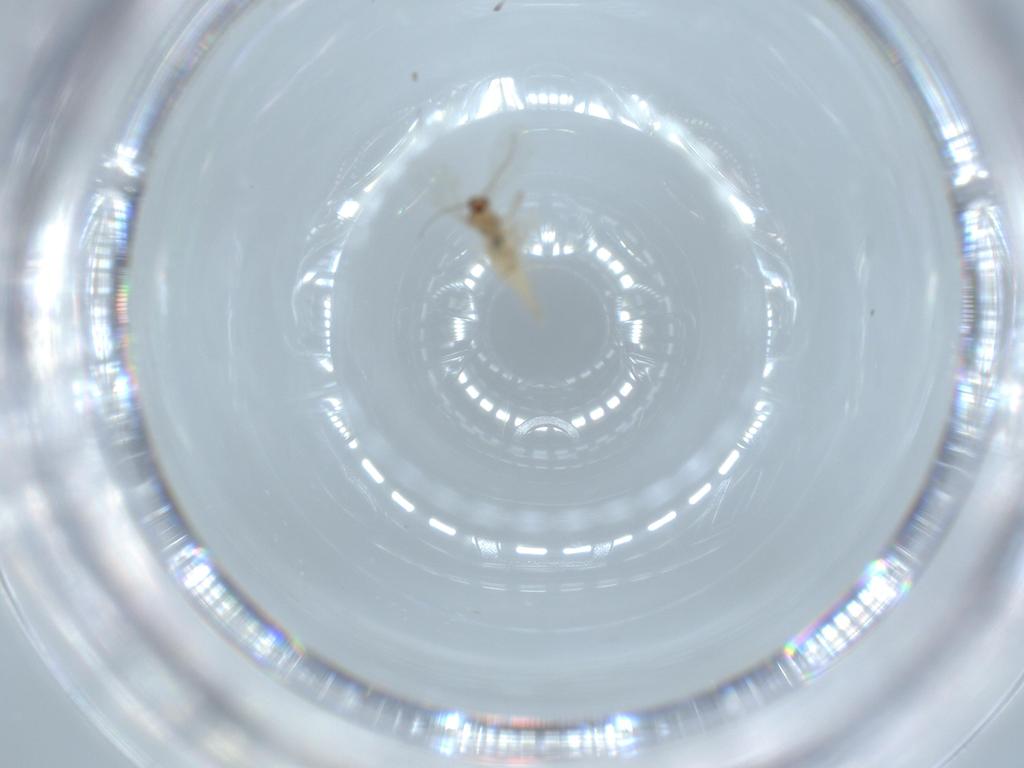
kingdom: Animalia
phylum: Arthropoda
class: Insecta
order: Diptera
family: Cecidomyiidae
